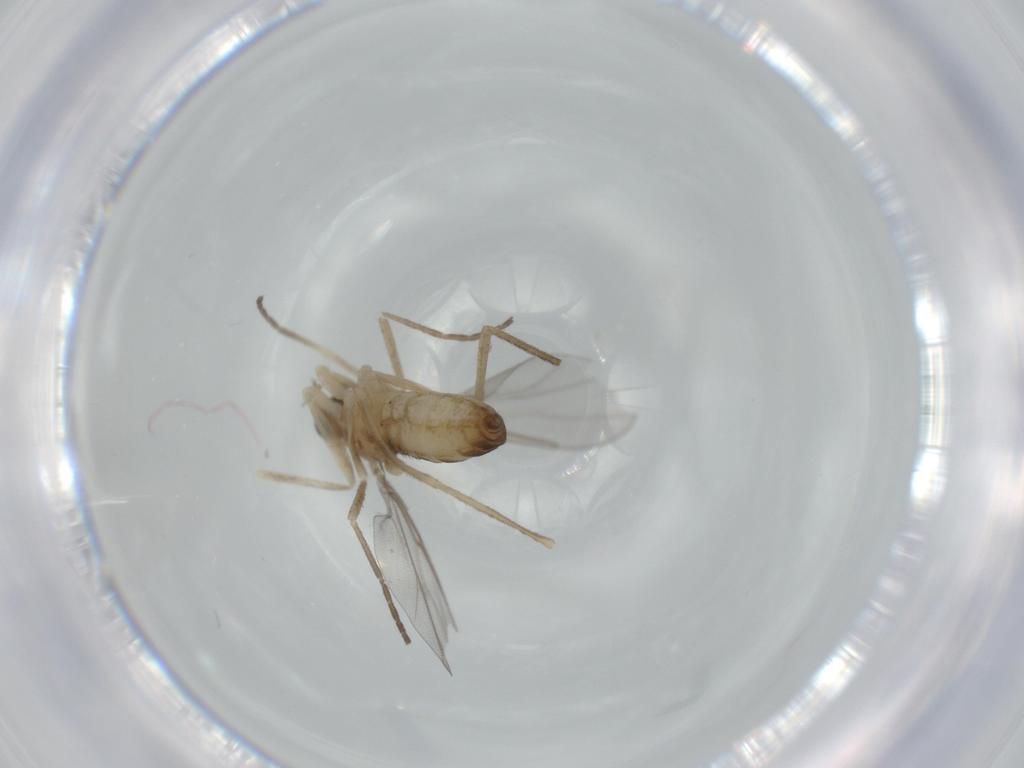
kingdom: Animalia
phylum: Arthropoda
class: Insecta
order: Diptera
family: Cecidomyiidae
